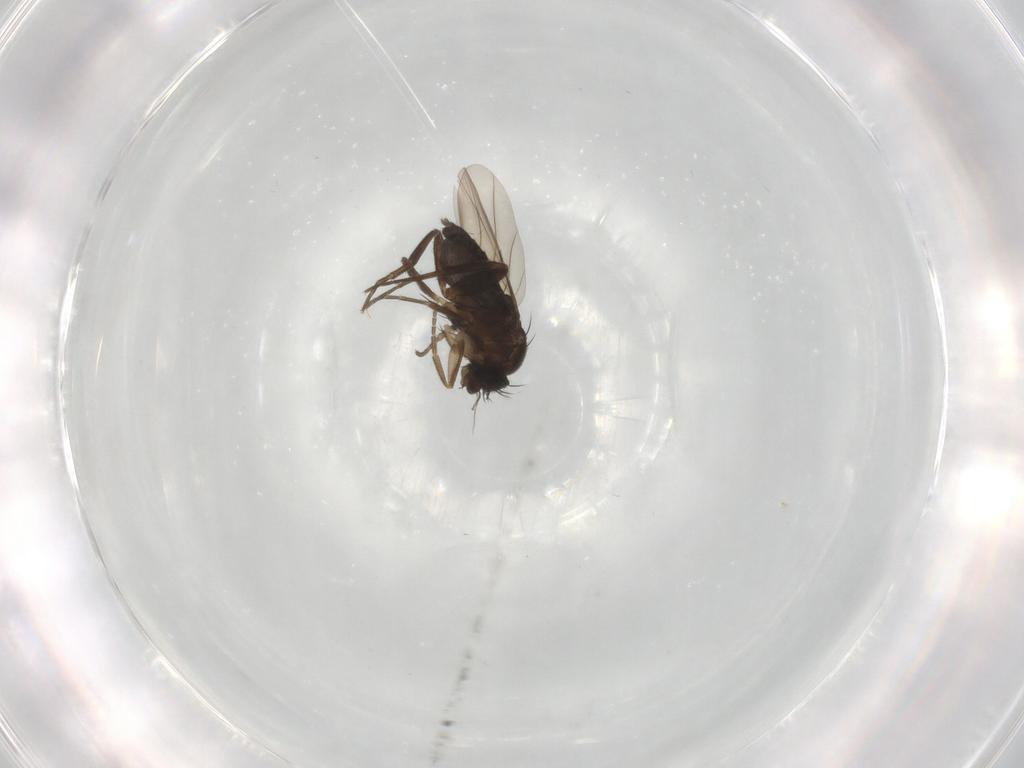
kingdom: Animalia
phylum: Arthropoda
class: Insecta
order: Diptera
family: Phoridae
